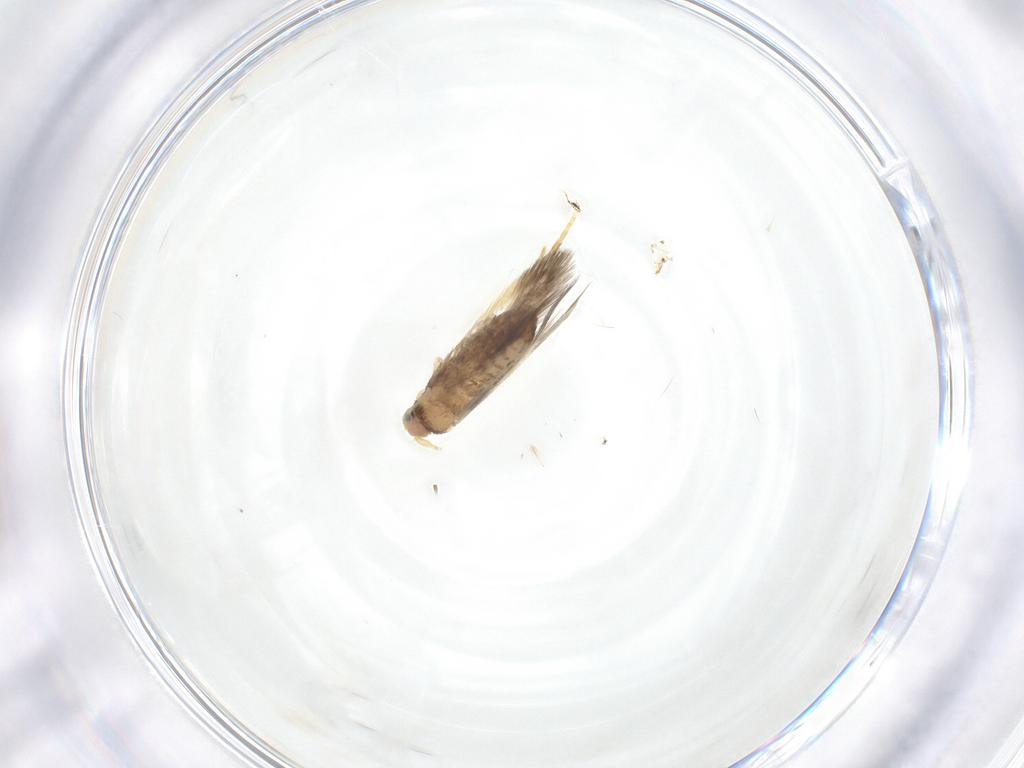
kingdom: Animalia
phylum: Arthropoda
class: Insecta
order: Lepidoptera
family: Nepticulidae
